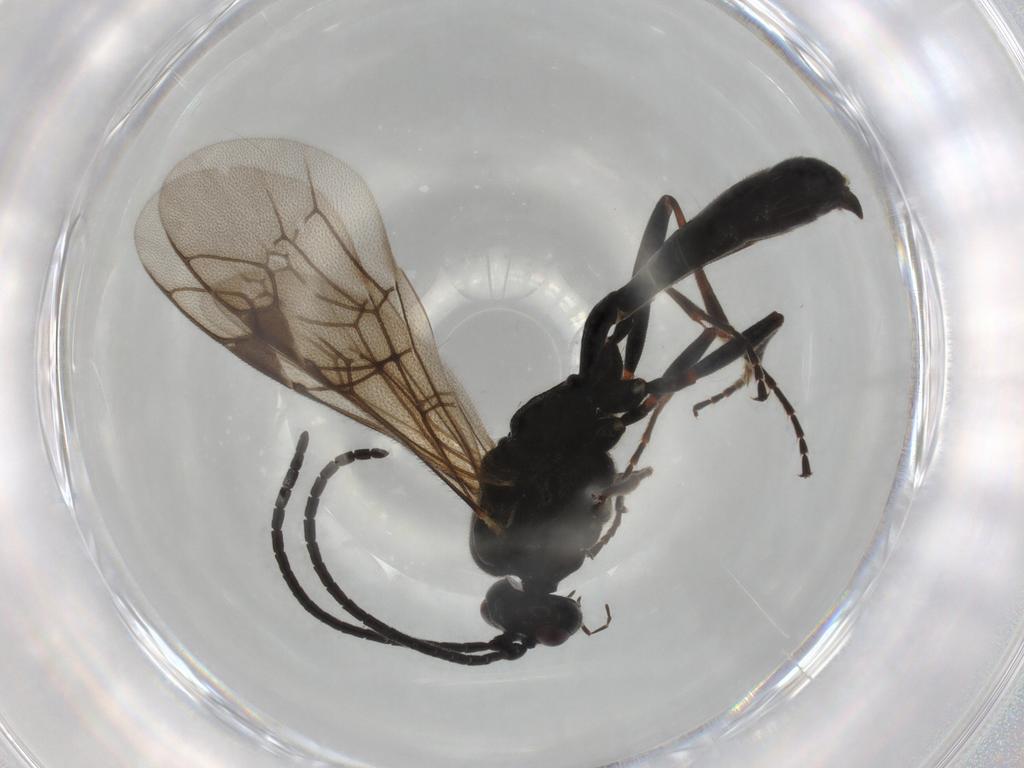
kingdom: Animalia
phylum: Arthropoda
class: Insecta
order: Hymenoptera
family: Ichneumonidae
